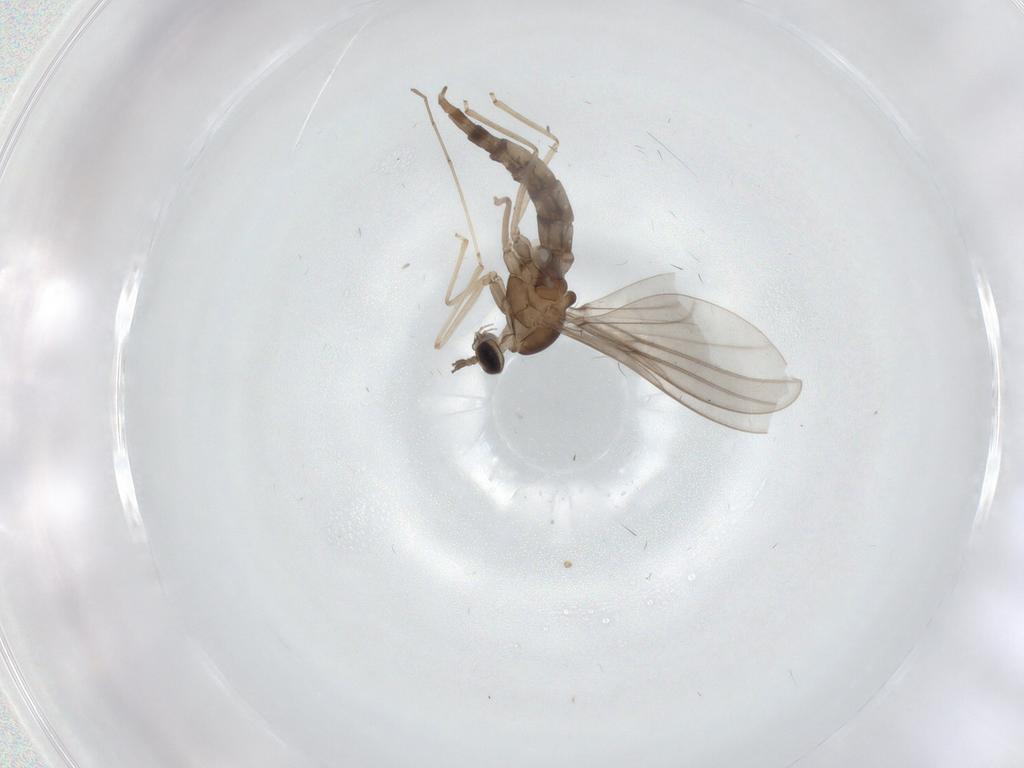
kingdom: Animalia
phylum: Arthropoda
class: Insecta
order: Diptera
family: Cecidomyiidae
